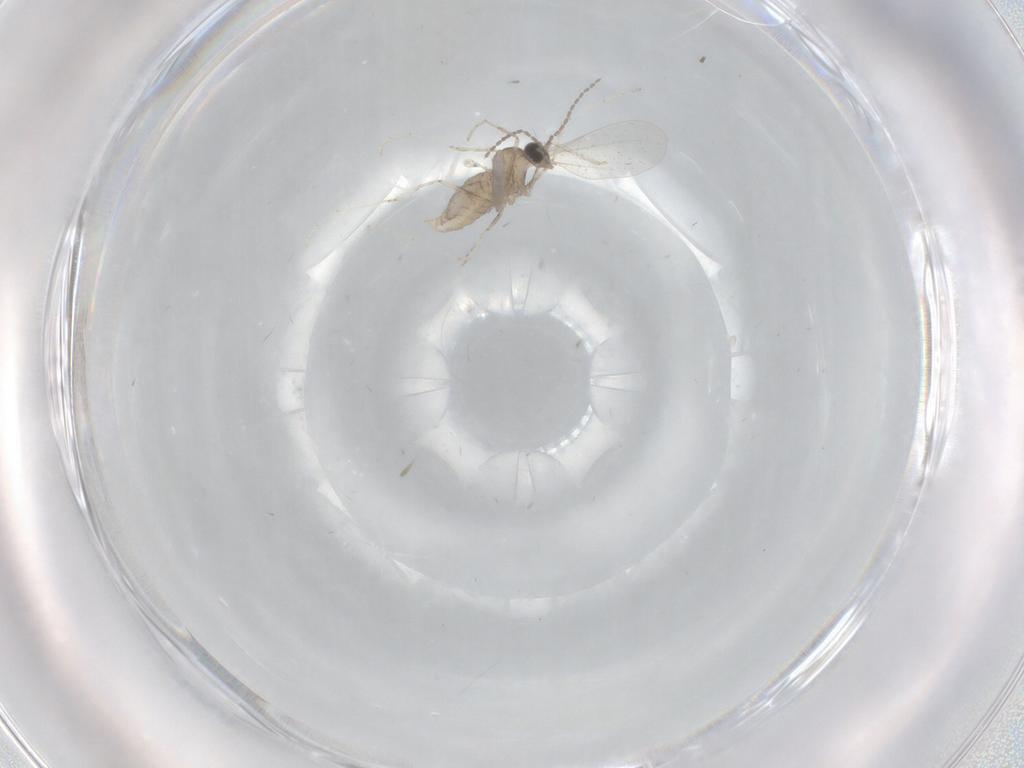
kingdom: Animalia
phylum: Arthropoda
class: Insecta
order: Diptera
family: Cecidomyiidae
